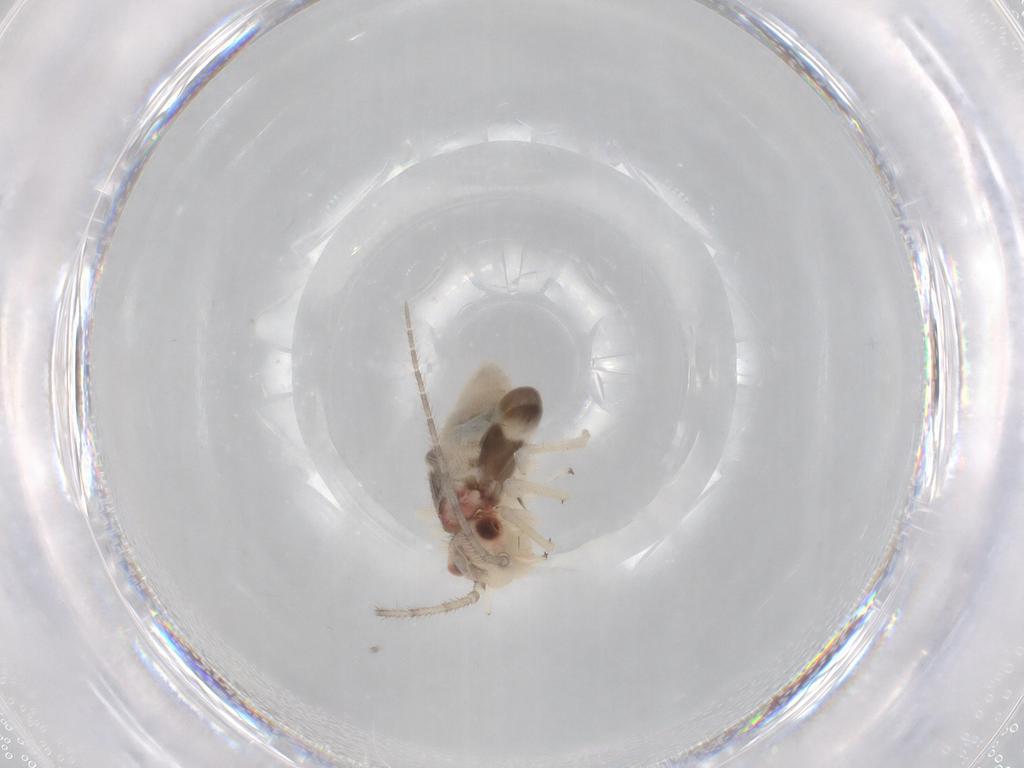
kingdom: Animalia
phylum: Arthropoda
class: Insecta
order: Psocodea
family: Amphipsocidae
